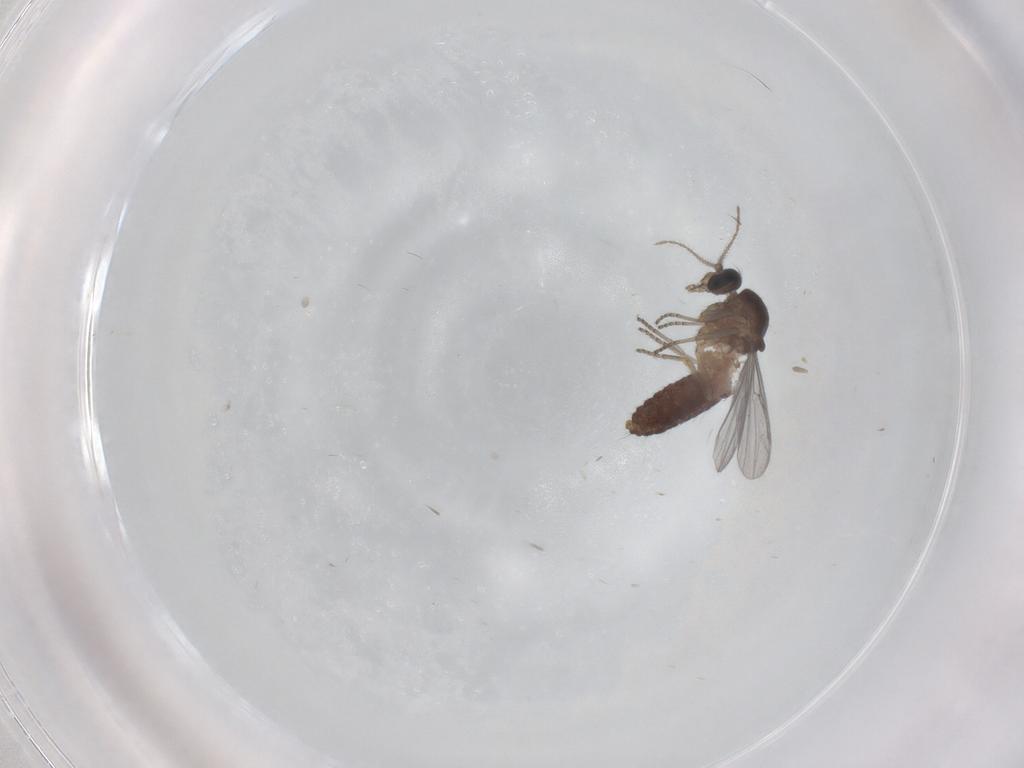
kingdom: Animalia
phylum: Arthropoda
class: Insecta
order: Diptera
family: Ceratopogonidae
